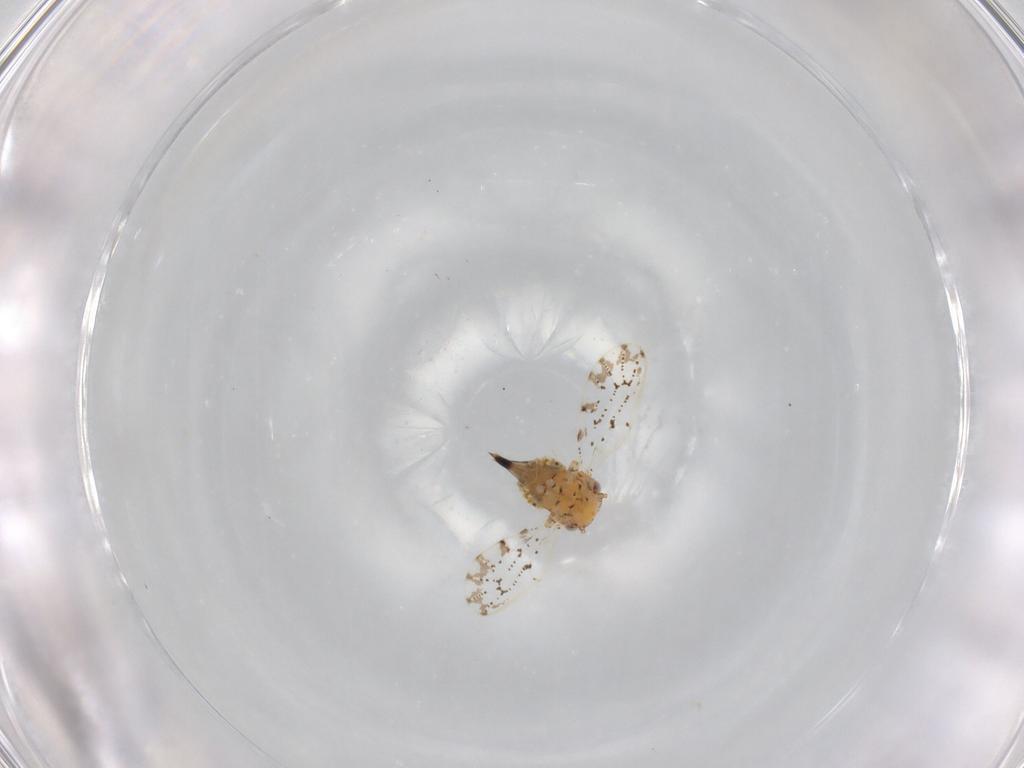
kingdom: Animalia
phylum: Arthropoda
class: Insecta
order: Hemiptera
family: Psylloidea_incertae_sedis
